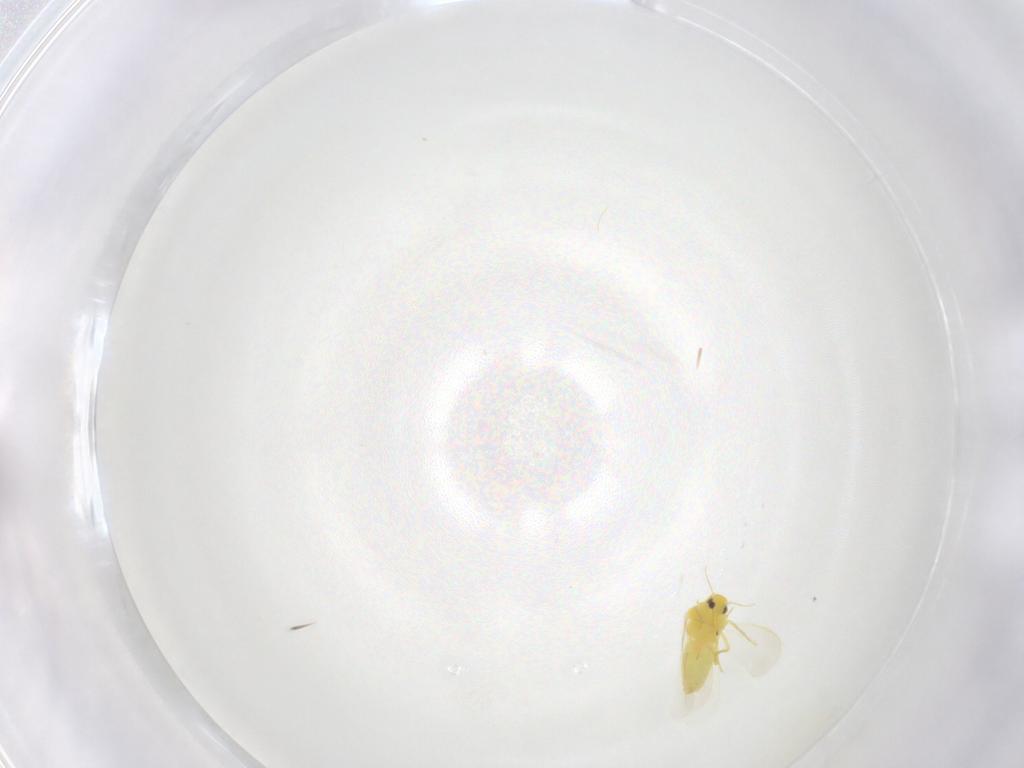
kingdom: Animalia
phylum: Arthropoda
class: Insecta
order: Hemiptera
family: Aleyrodidae
